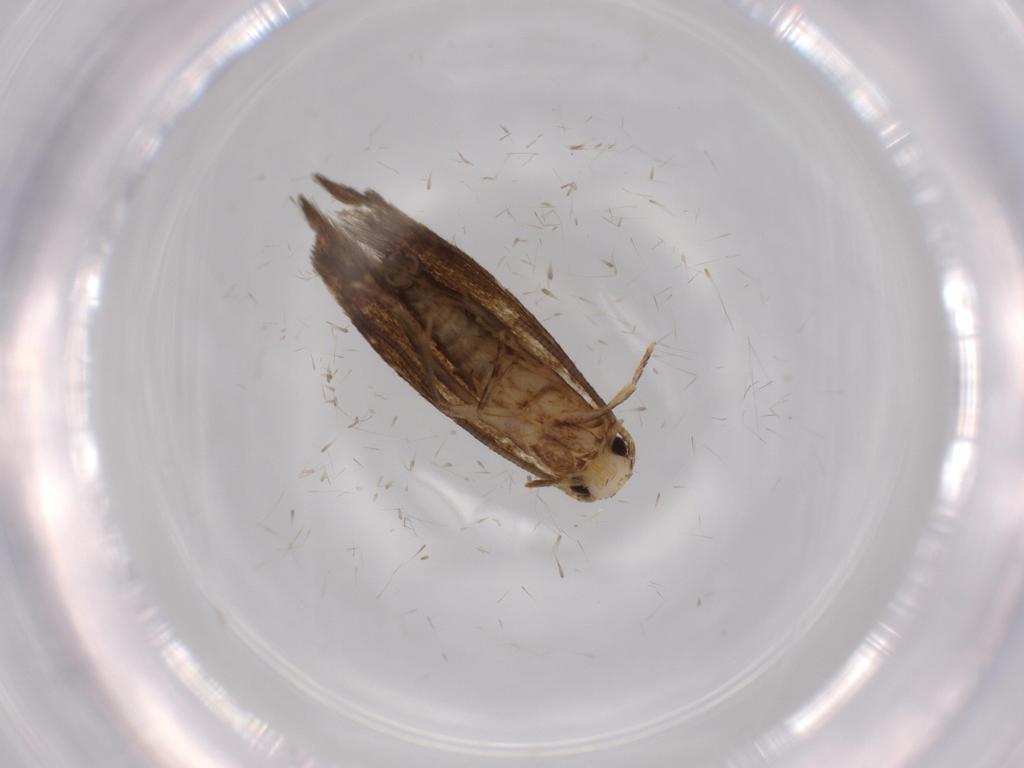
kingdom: Animalia
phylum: Arthropoda
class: Insecta
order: Lepidoptera
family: Tineidae
